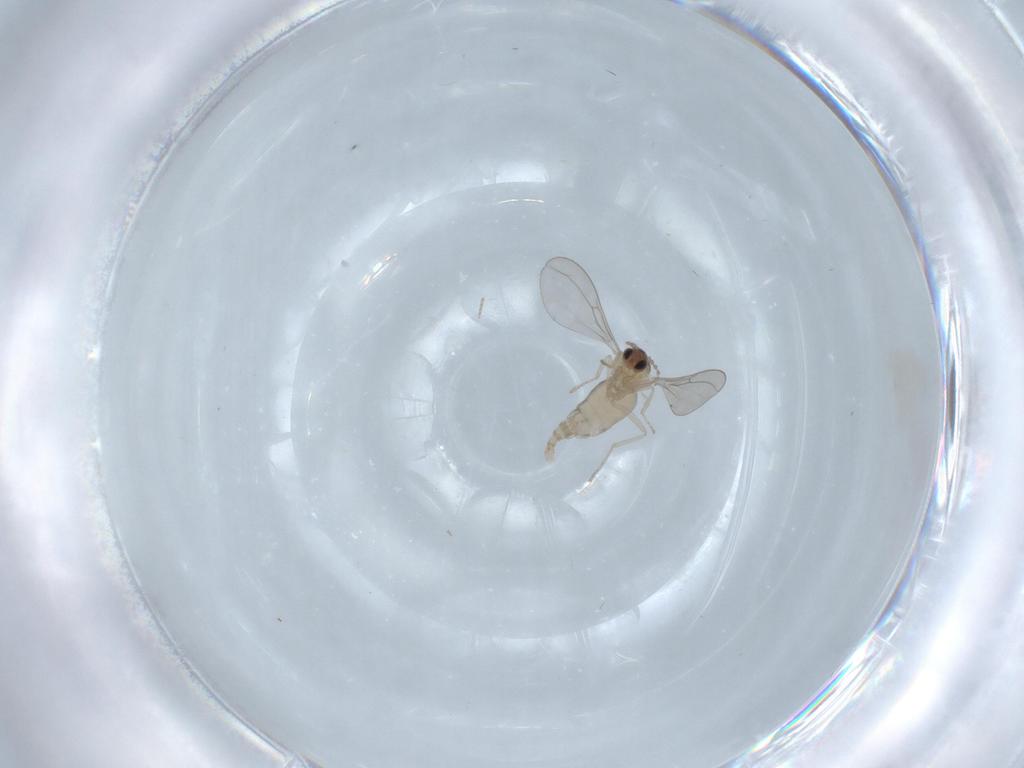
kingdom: Animalia
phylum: Arthropoda
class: Insecta
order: Diptera
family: Cecidomyiidae
